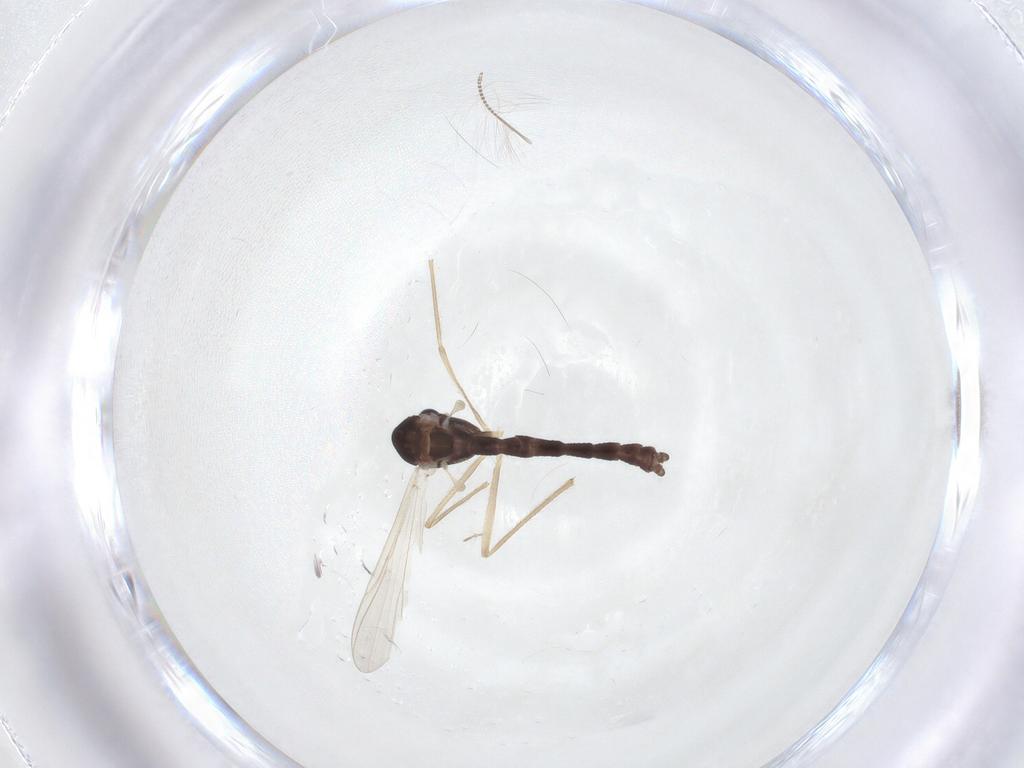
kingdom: Animalia
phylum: Arthropoda
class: Insecta
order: Diptera
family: Chironomidae
